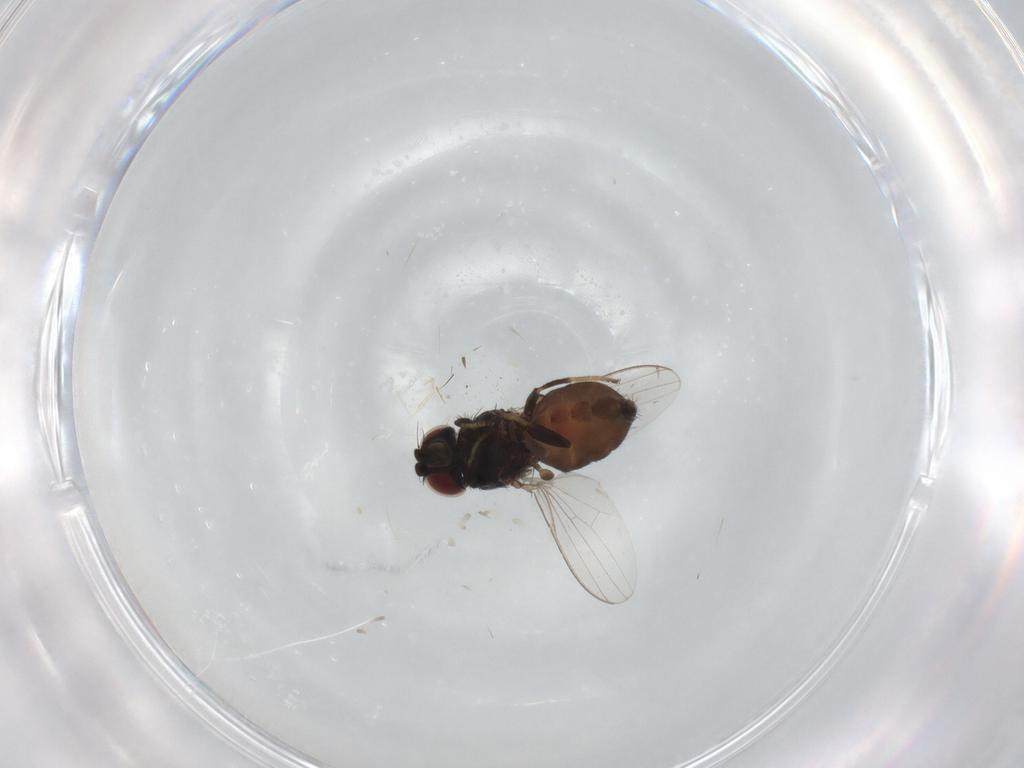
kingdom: Animalia
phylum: Arthropoda
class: Insecta
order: Diptera
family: Milichiidae
